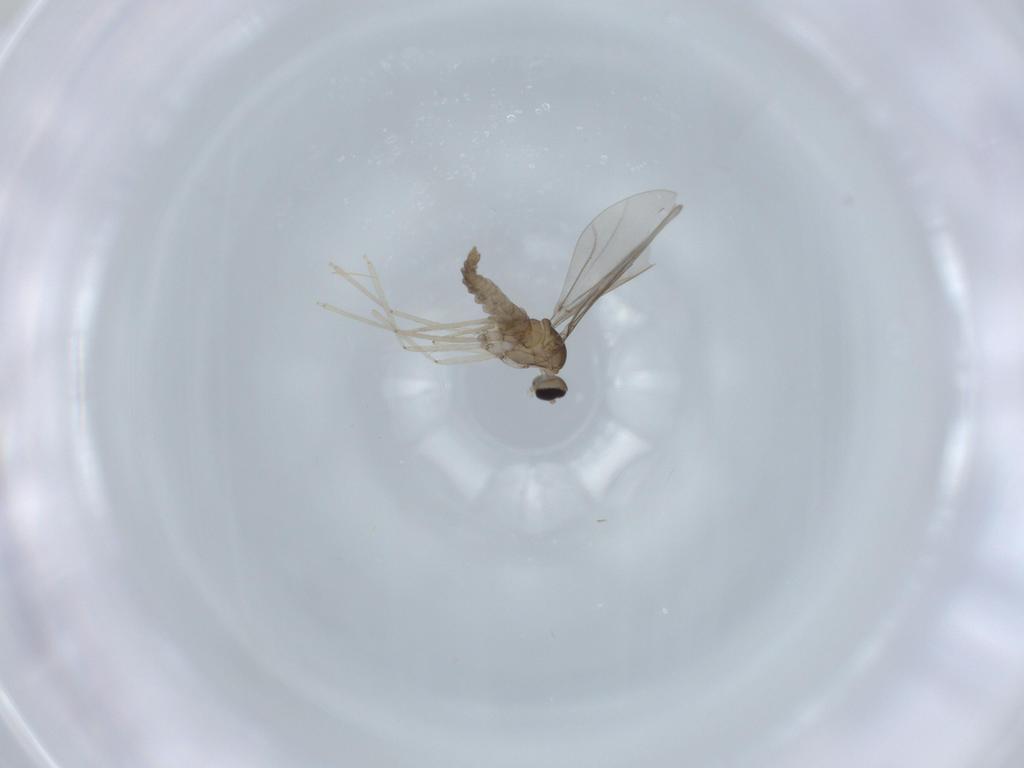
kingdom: Animalia
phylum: Arthropoda
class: Insecta
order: Diptera
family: Cecidomyiidae
